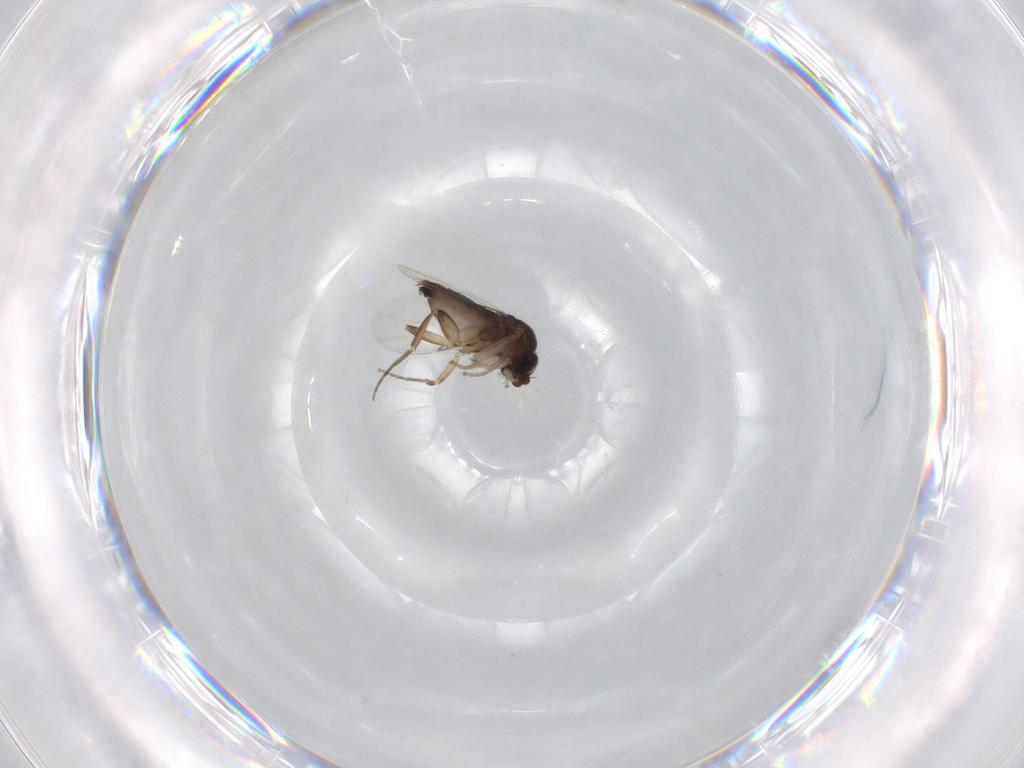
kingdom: Animalia
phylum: Arthropoda
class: Insecta
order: Diptera
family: Phoridae
